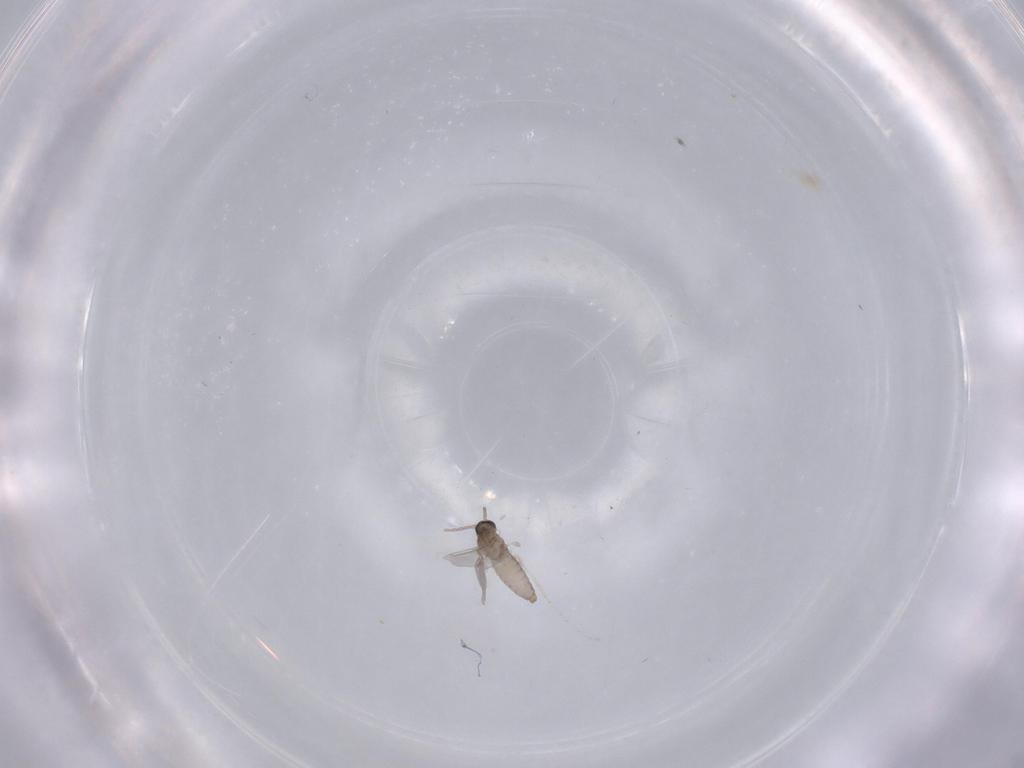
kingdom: Animalia
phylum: Arthropoda
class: Insecta
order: Diptera
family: Cecidomyiidae
